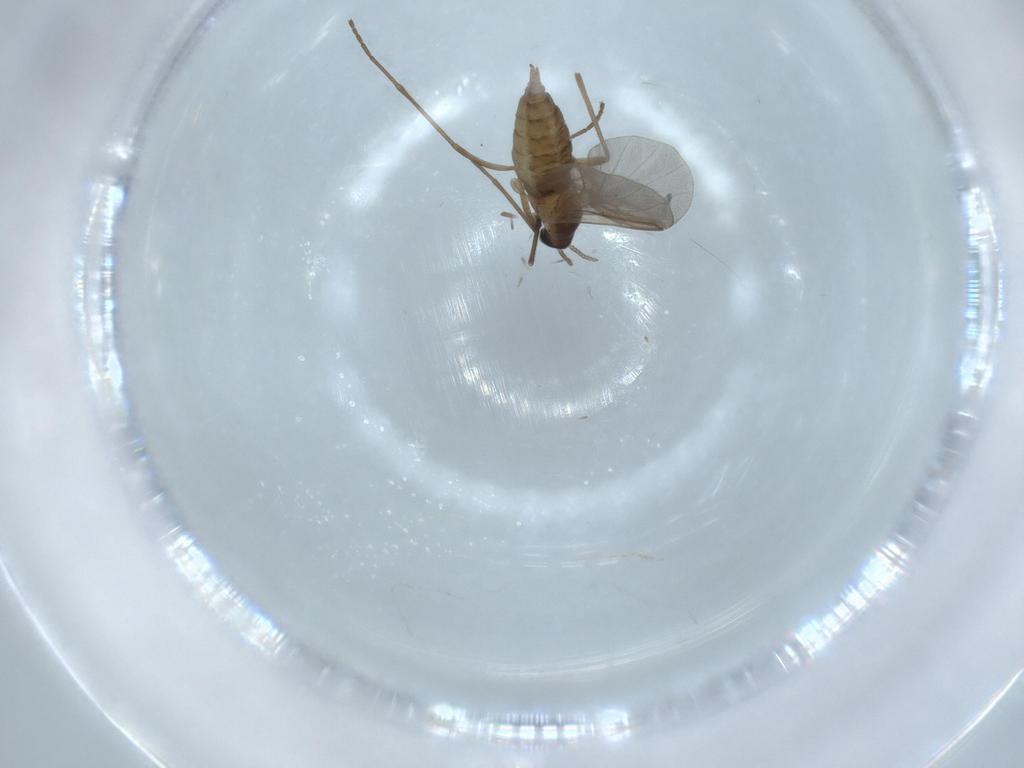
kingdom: Animalia
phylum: Arthropoda
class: Insecta
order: Diptera
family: Cecidomyiidae
